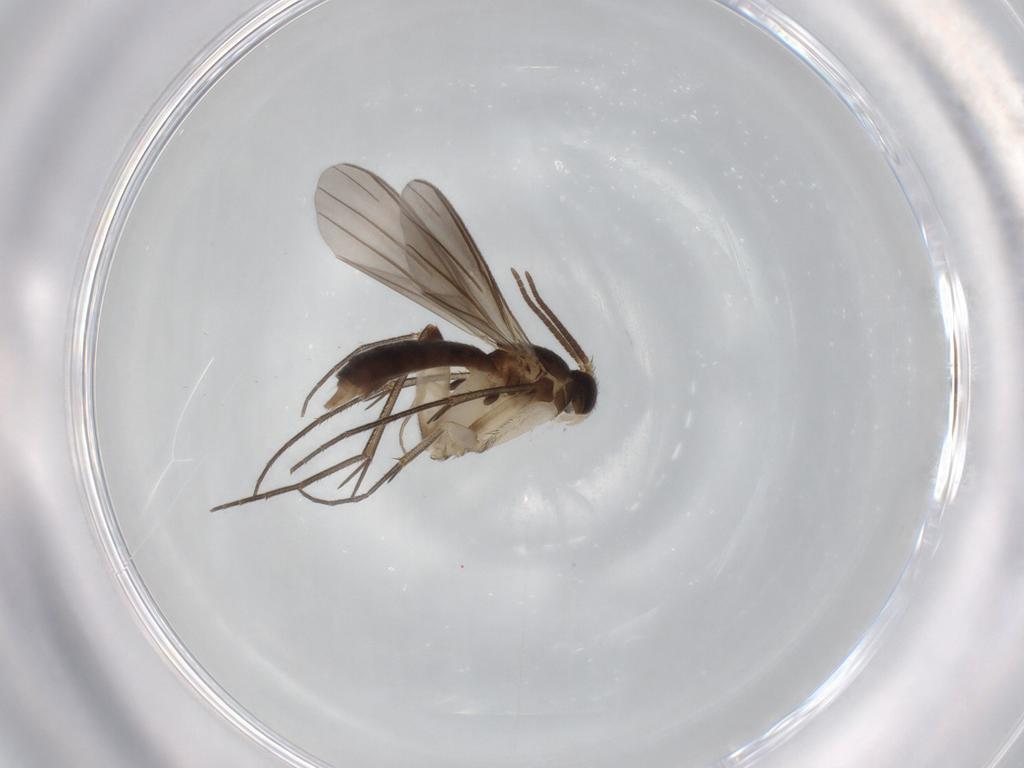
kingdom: Animalia
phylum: Arthropoda
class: Insecta
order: Diptera
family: Mycetophilidae
